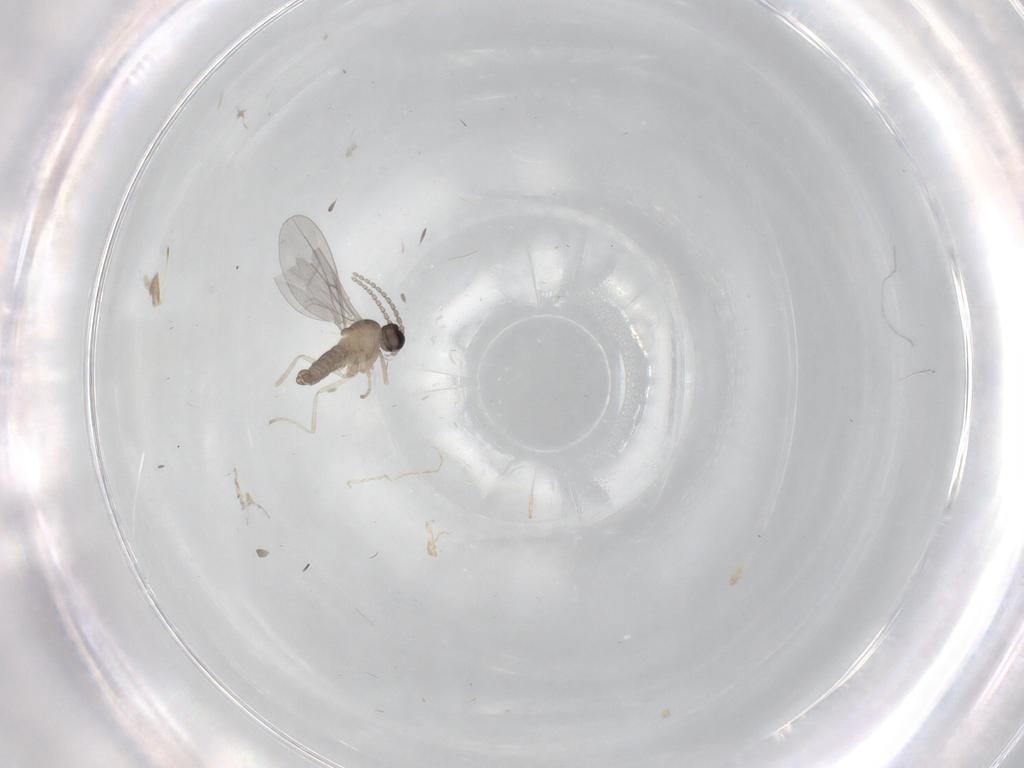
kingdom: Animalia
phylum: Arthropoda
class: Insecta
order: Diptera
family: Cecidomyiidae
